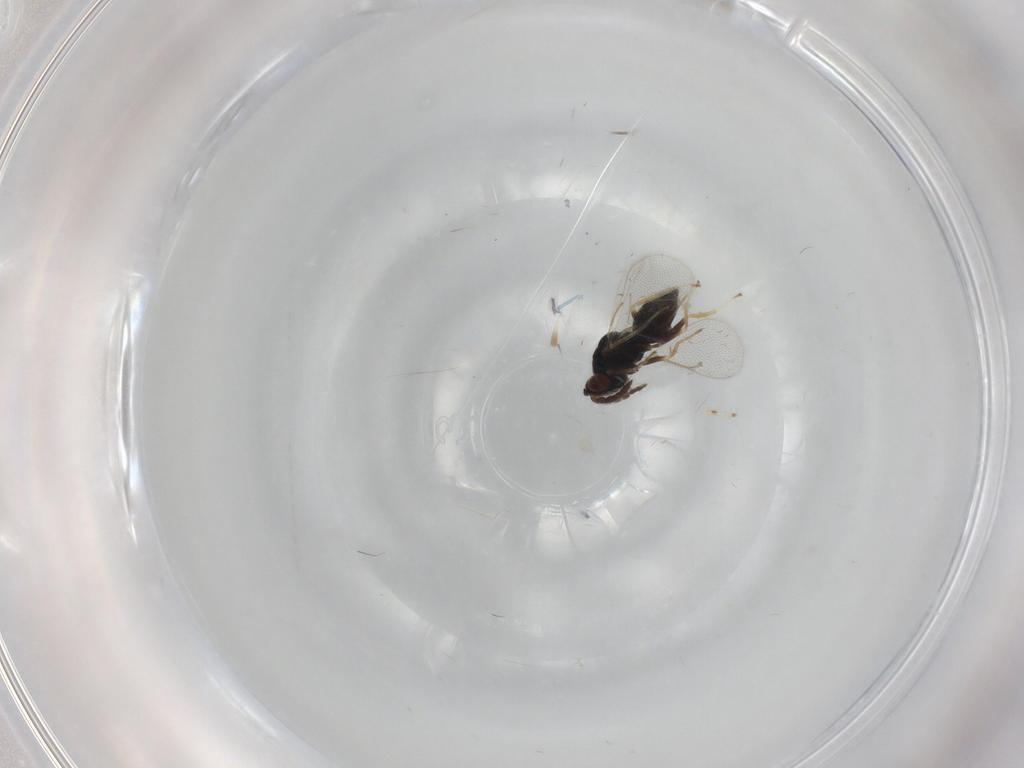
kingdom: Animalia
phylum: Arthropoda
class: Insecta
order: Hymenoptera
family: Eulophidae
